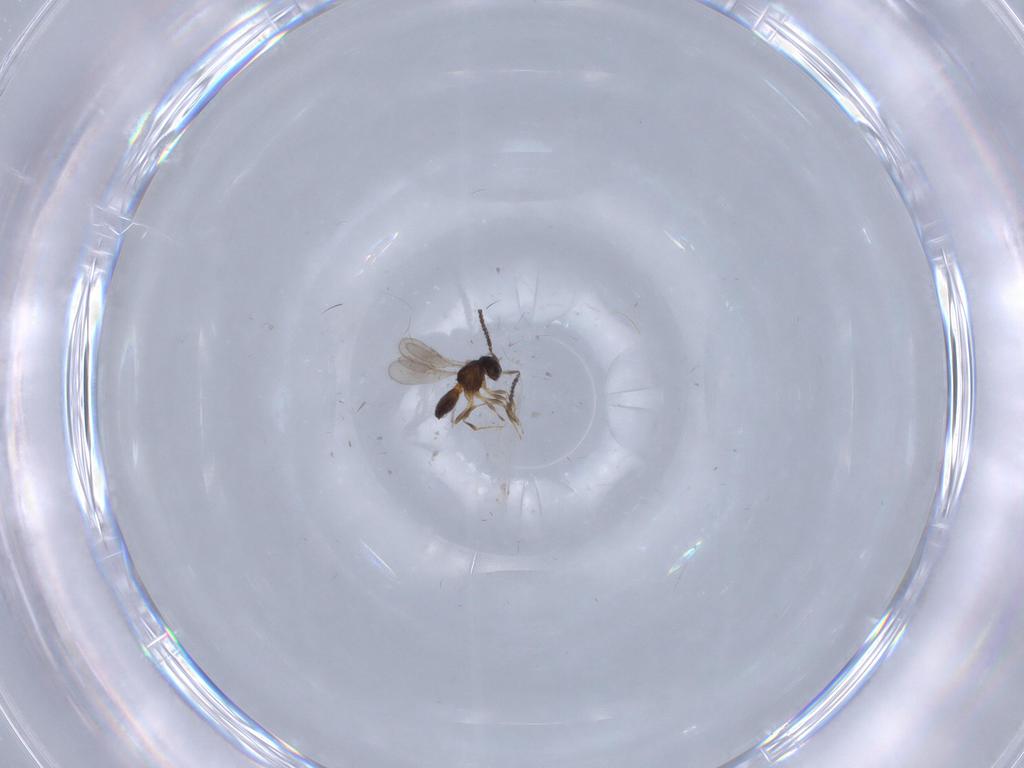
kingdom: Animalia
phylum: Arthropoda
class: Insecta
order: Hymenoptera
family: Scelionidae
